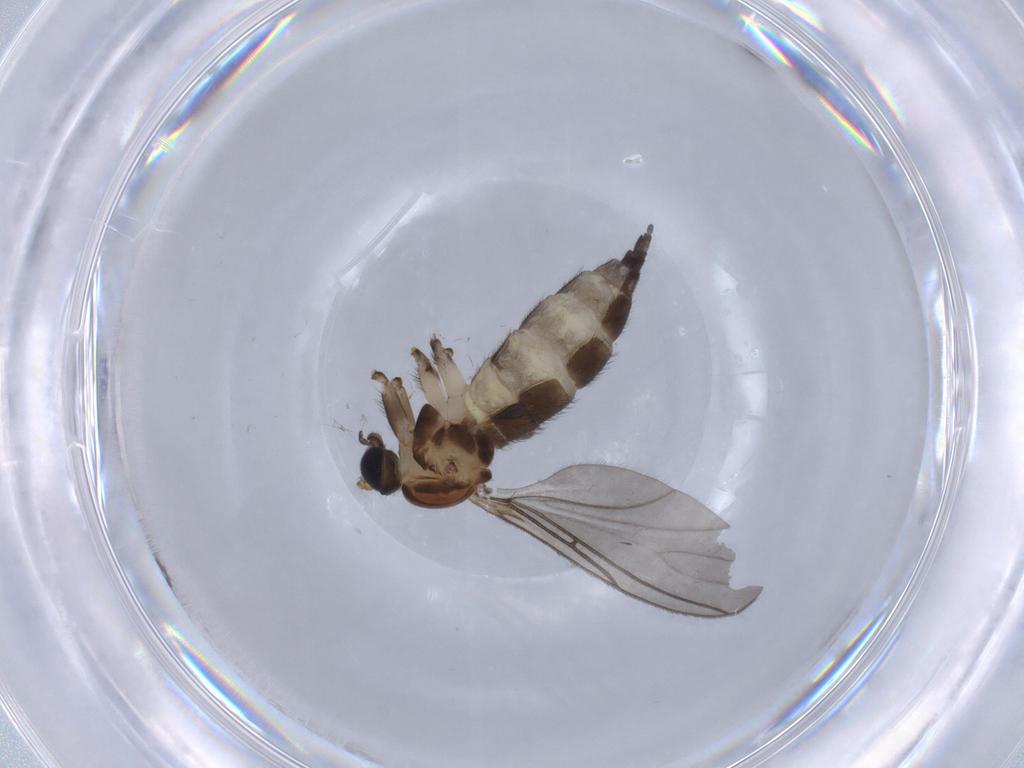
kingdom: Animalia
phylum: Arthropoda
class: Insecta
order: Diptera
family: Sciaridae
